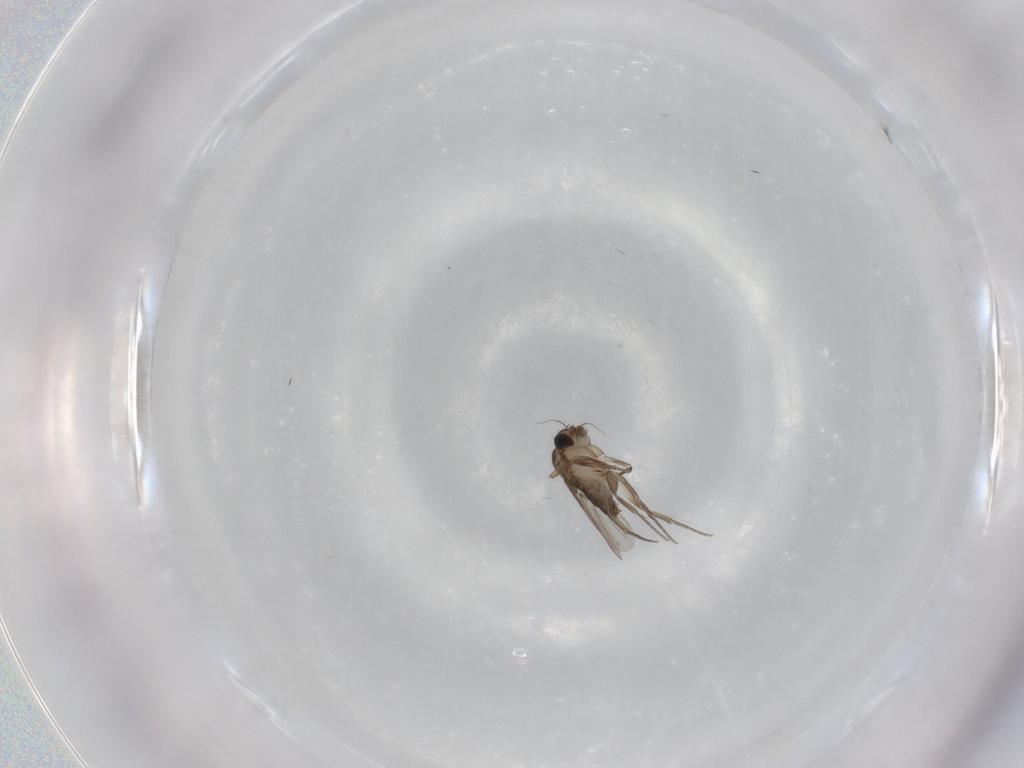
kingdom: Animalia
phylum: Arthropoda
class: Insecta
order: Diptera
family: Phoridae
